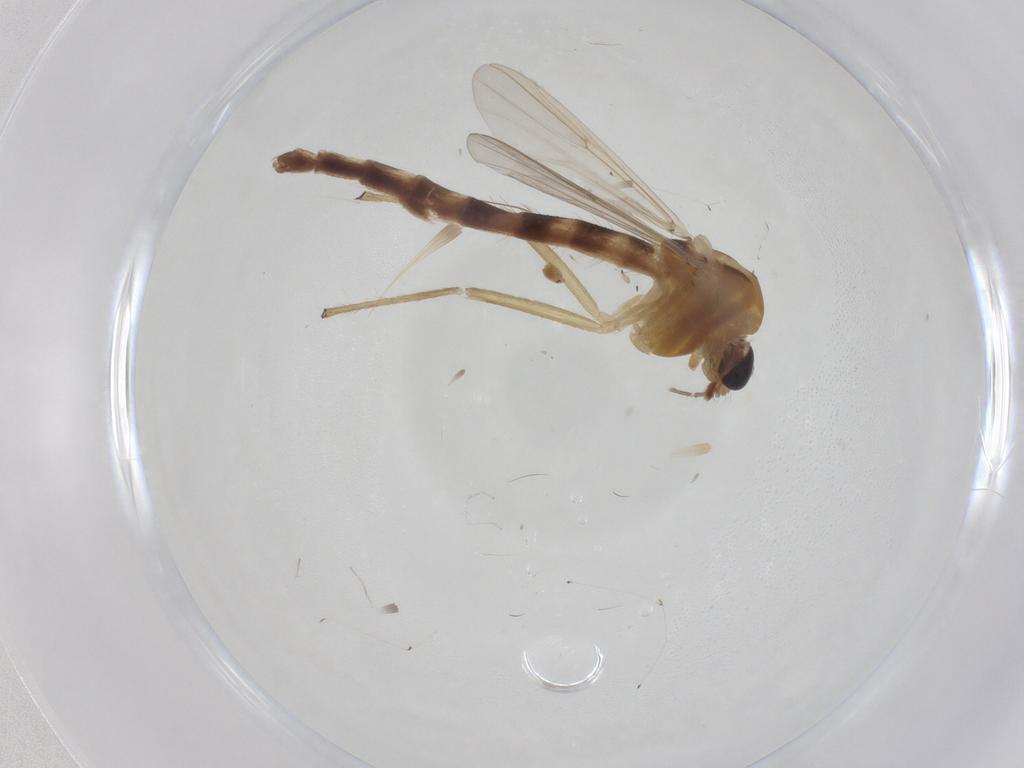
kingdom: Animalia
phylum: Arthropoda
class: Insecta
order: Diptera
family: Chironomidae
